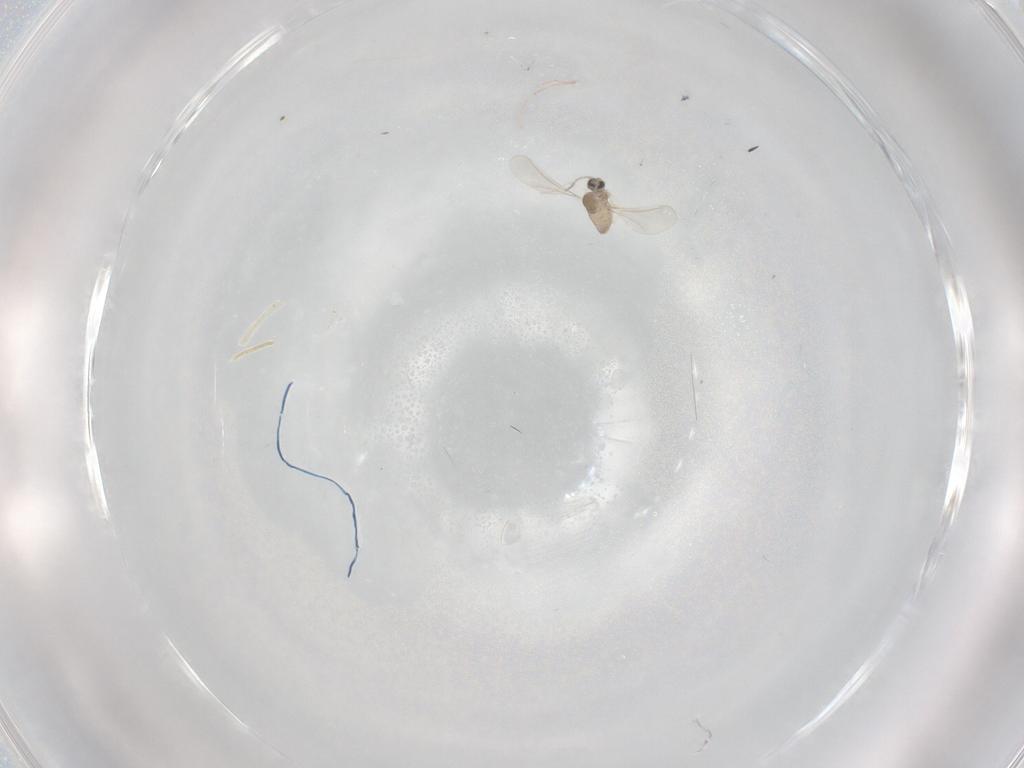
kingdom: Animalia
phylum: Arthropoda
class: Insecta
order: Diptera
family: Cecidomyiidae
